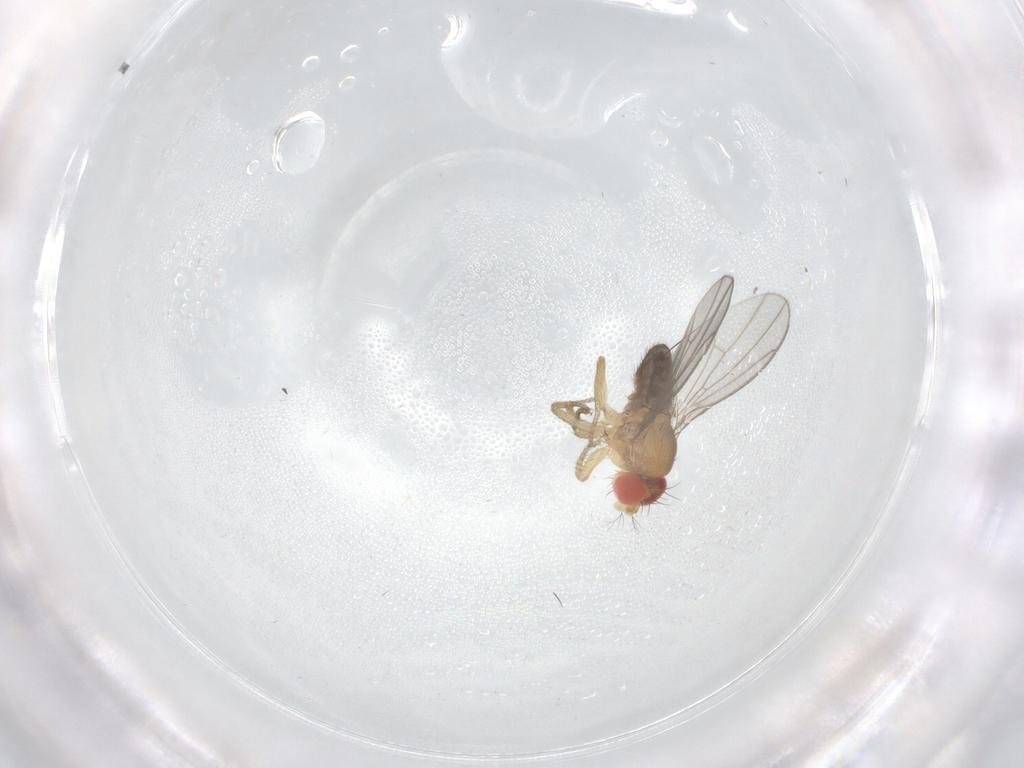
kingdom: Animalia
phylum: Arthropoda
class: Insecta
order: Diptera
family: Drosophilidae
